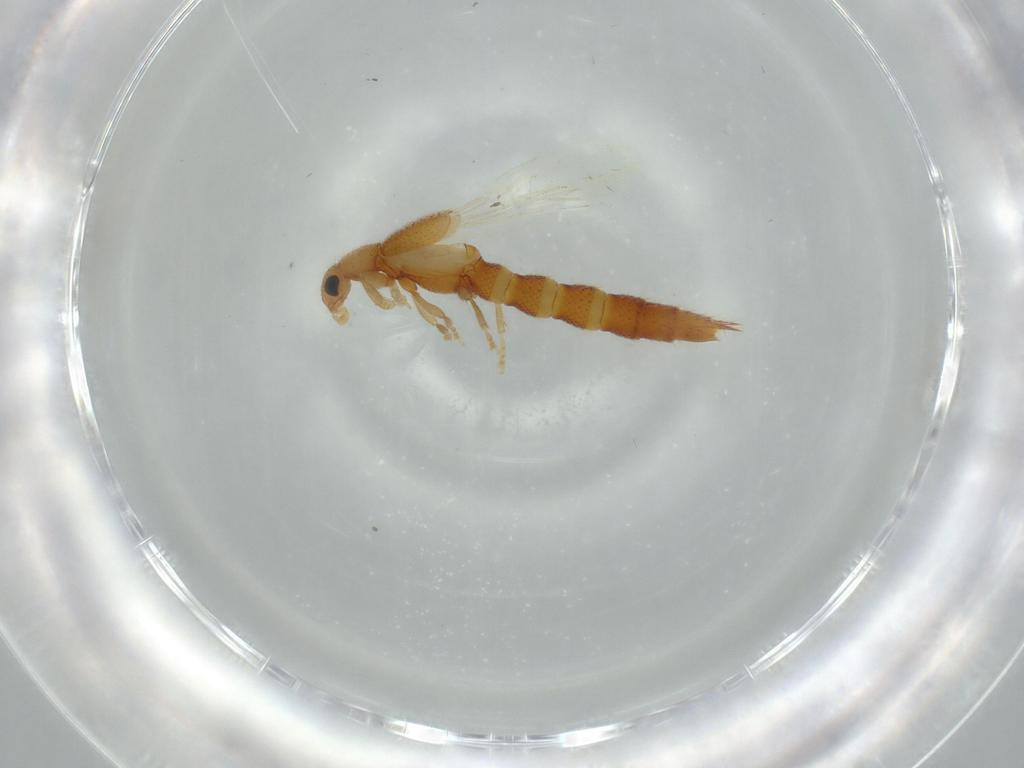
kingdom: Animalia
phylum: Arthropoda
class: Insecta
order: Coleoptera
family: Staphylinidae
